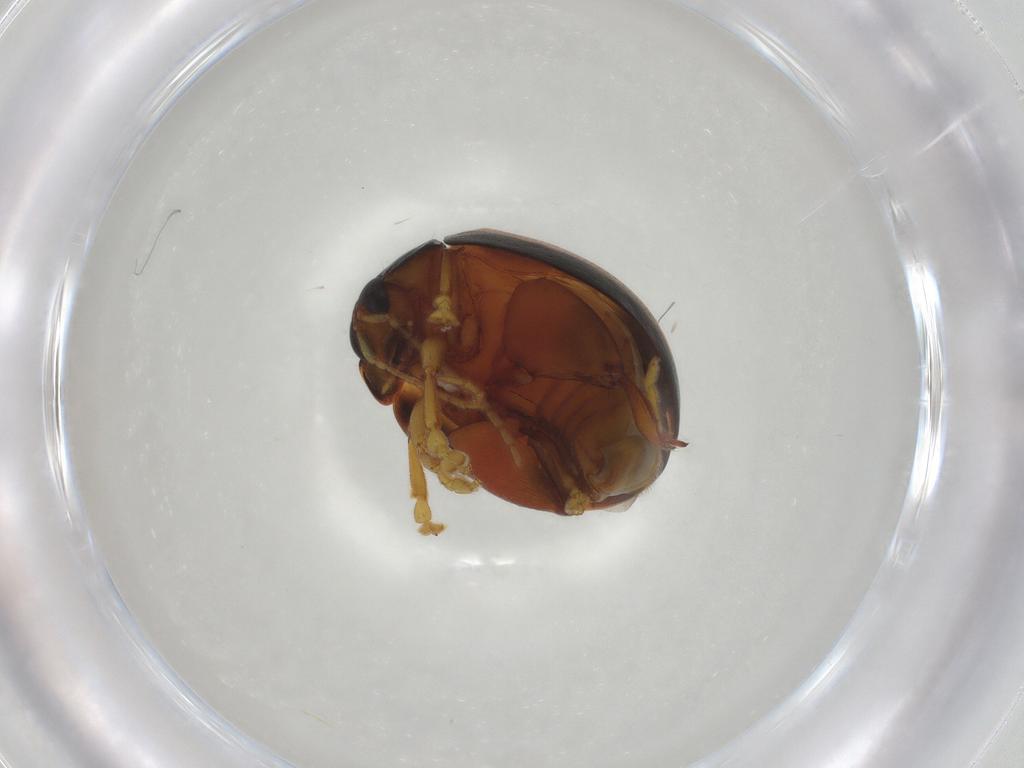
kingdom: Animalia
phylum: Arthropoda
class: Insecta
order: Coleoptera
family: Chrysomelidae
